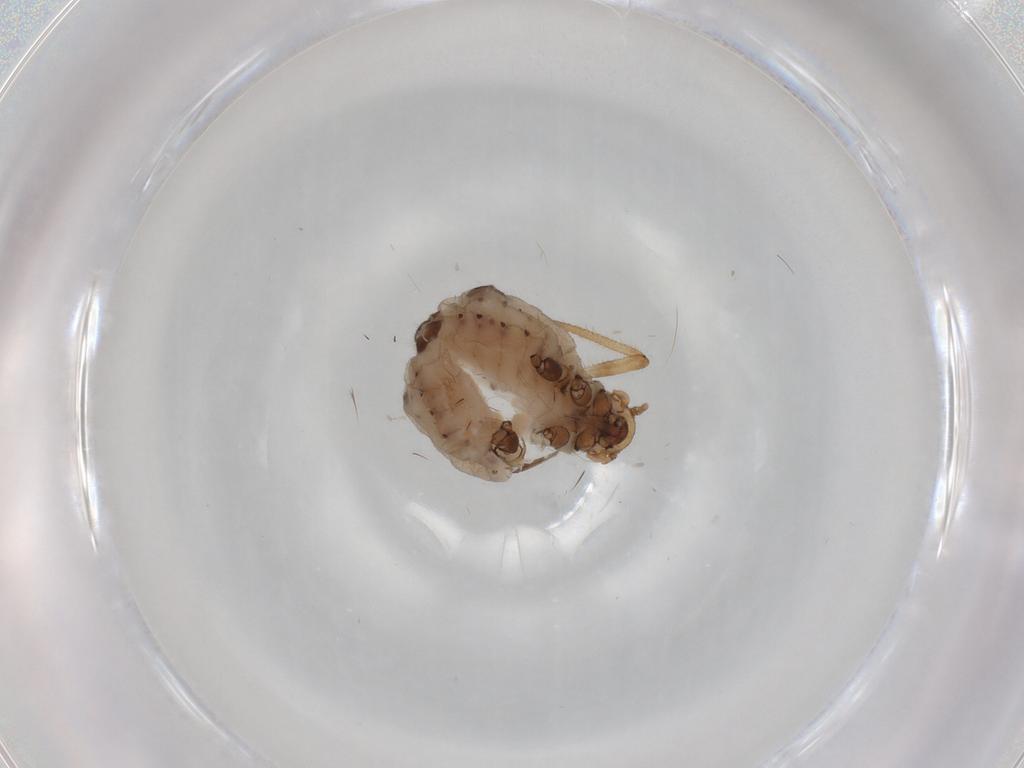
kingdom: Animalia
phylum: Arthropoda
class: Insecta
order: Hemiptera
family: Aphididae
